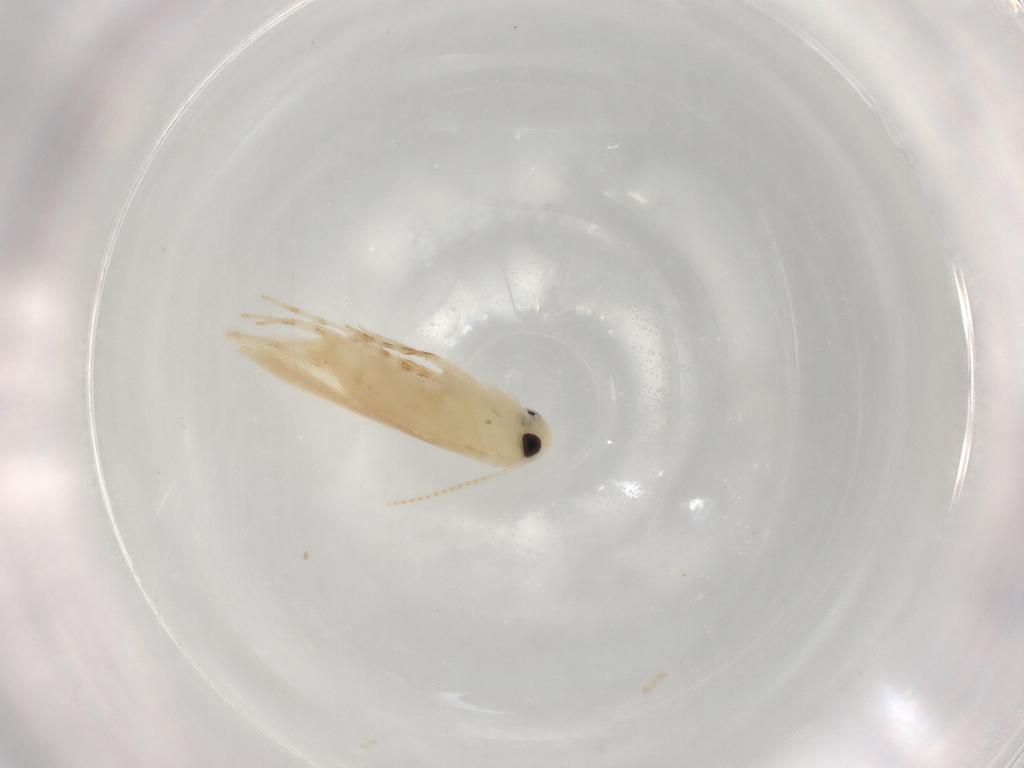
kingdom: Animalia
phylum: Arthropoda
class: Insecta
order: Lepidoptera
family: Gracillariidae
